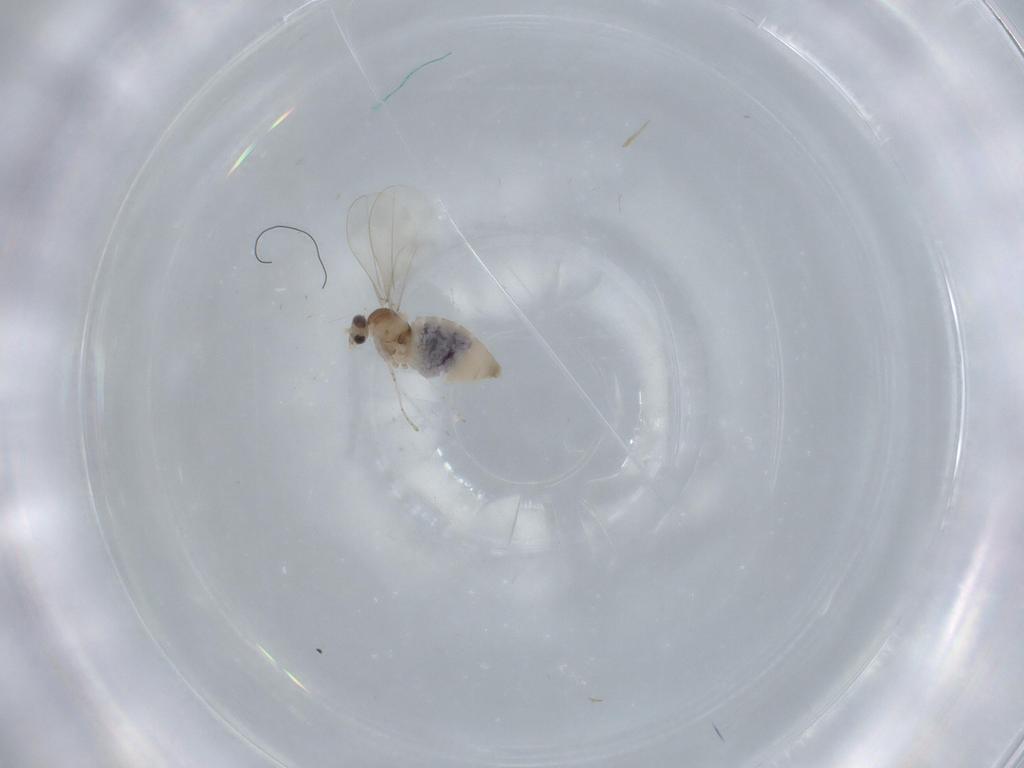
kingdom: Animalia
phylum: Arthropoda
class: Insecta
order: Diptera
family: Cecidomyiidae
